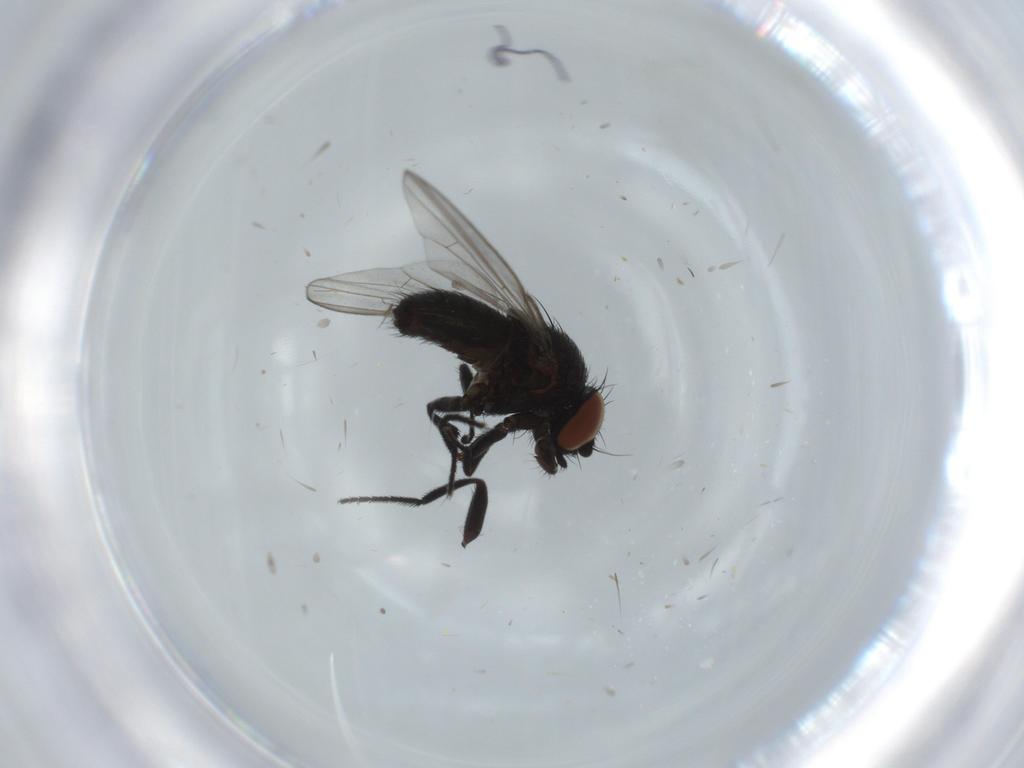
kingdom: Animalia
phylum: Arthropoda
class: Insecta
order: Diptera
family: Milichiidae
